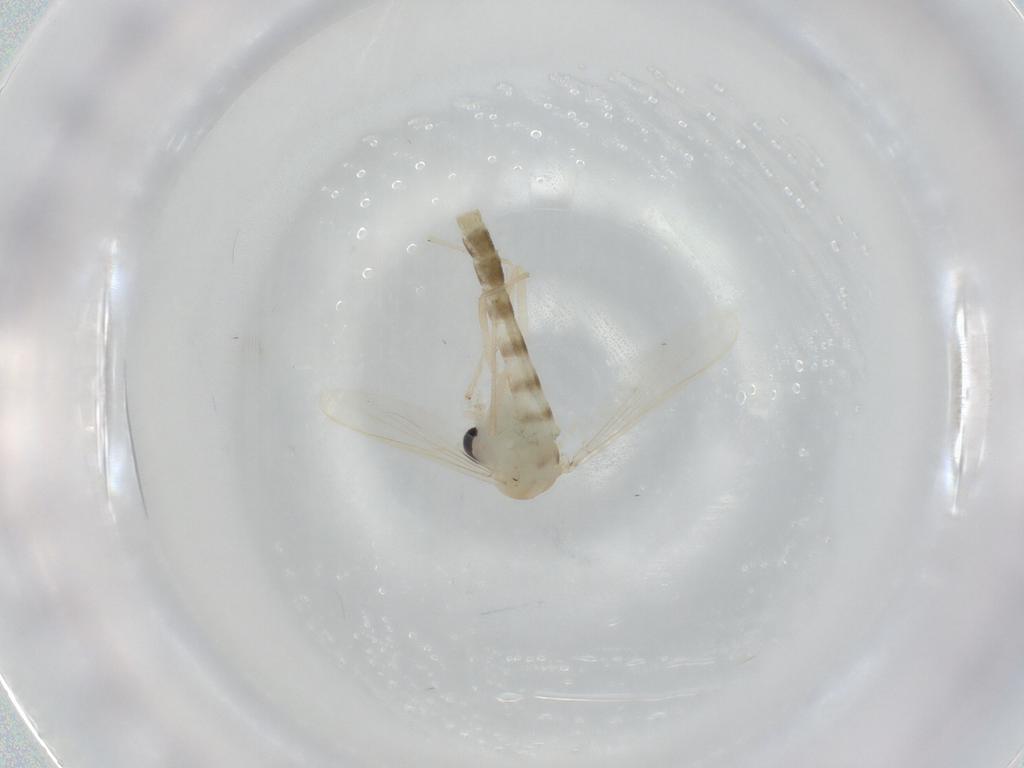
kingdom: Animalia
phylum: Arthropoda
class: Insecta
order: Diptera
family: Chironomidae
